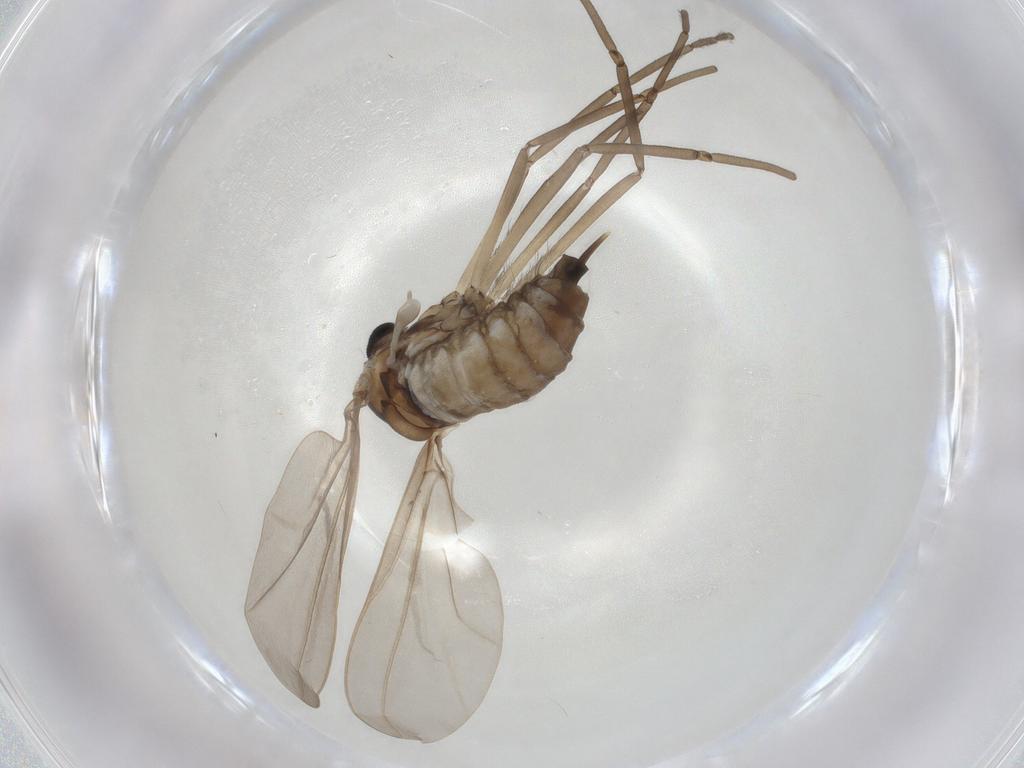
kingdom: Animalia
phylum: Arthropoda
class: Insecta
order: Diptera
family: Cecidomyiidae
